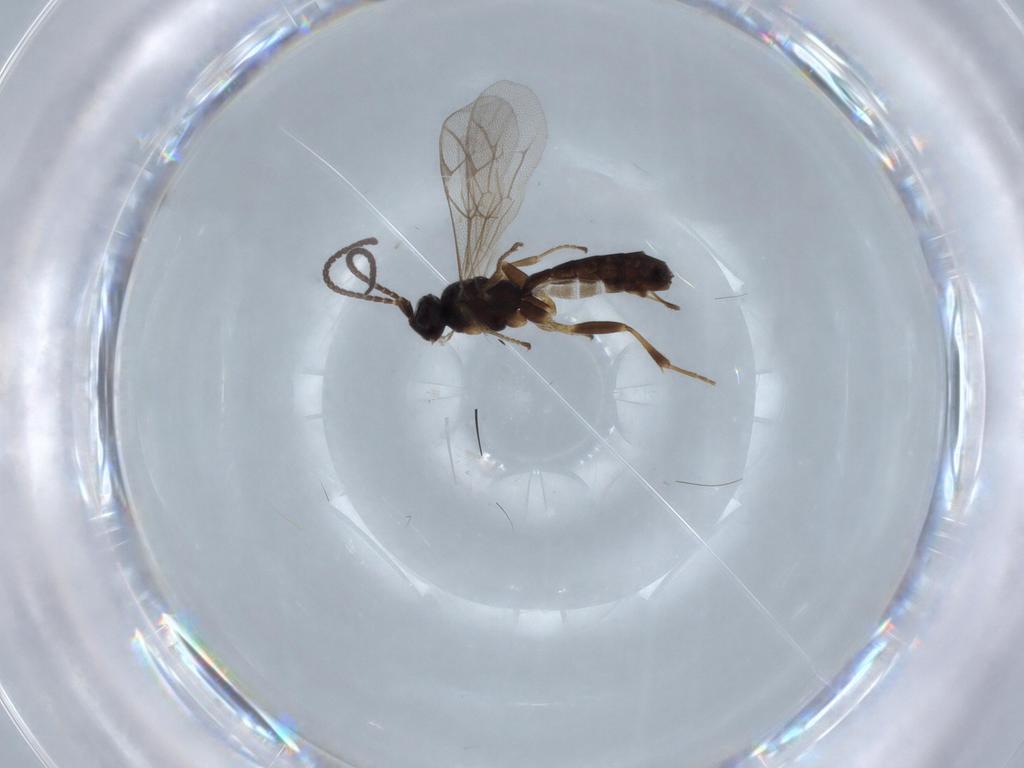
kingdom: Animalia
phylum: Arthropoda
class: Insecta
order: Hymenoptera
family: Ichneumonidae
